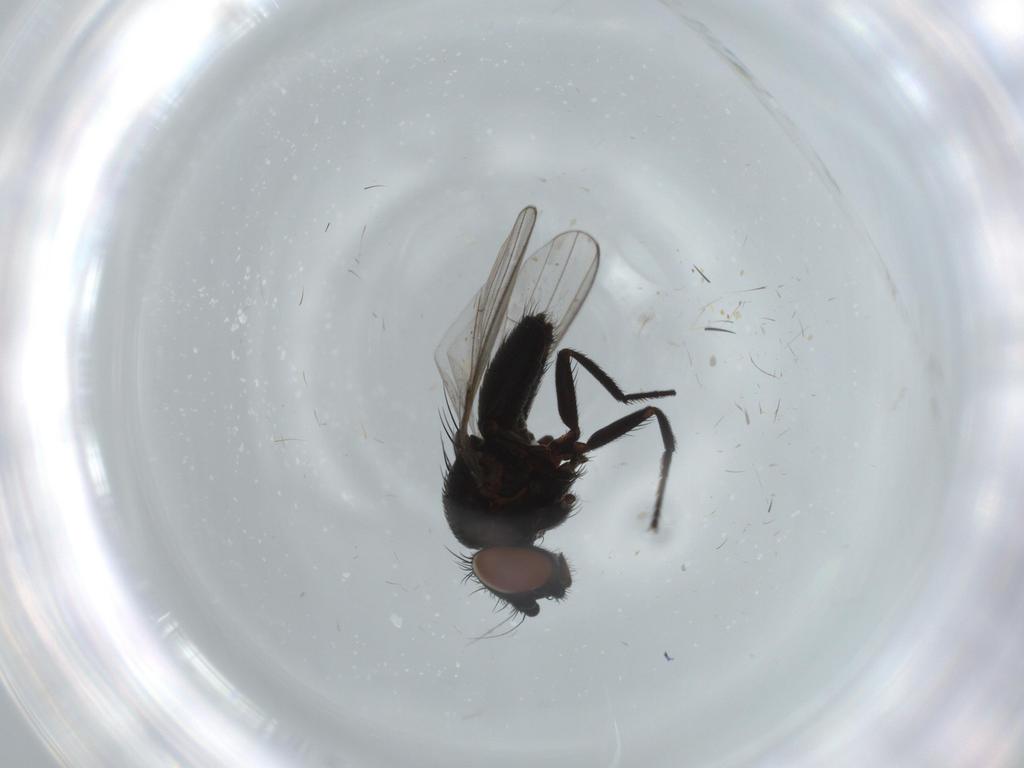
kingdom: Animalia
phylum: Arthropoda
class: Insecta
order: Diptera
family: Milichiidae
